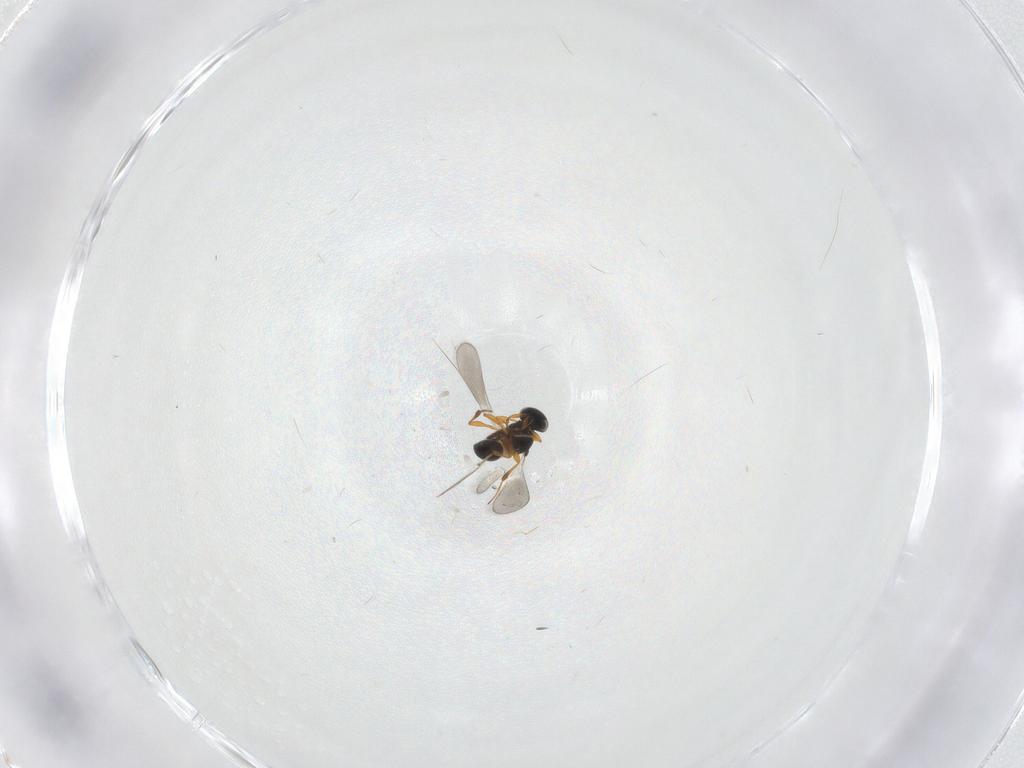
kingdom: Animalia
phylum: Arthropoda
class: Insecta
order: Hymenoptera
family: Platygastridae
